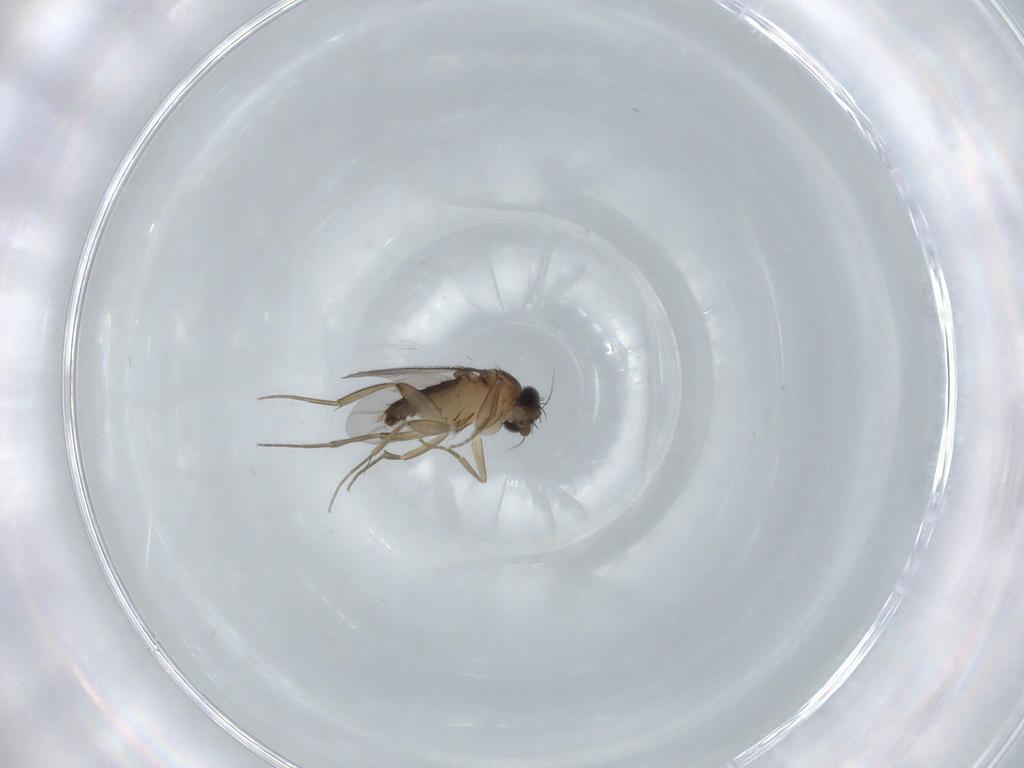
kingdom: Animalia
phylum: Arthropoda
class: Insecta
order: Diptera
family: Phoridae
